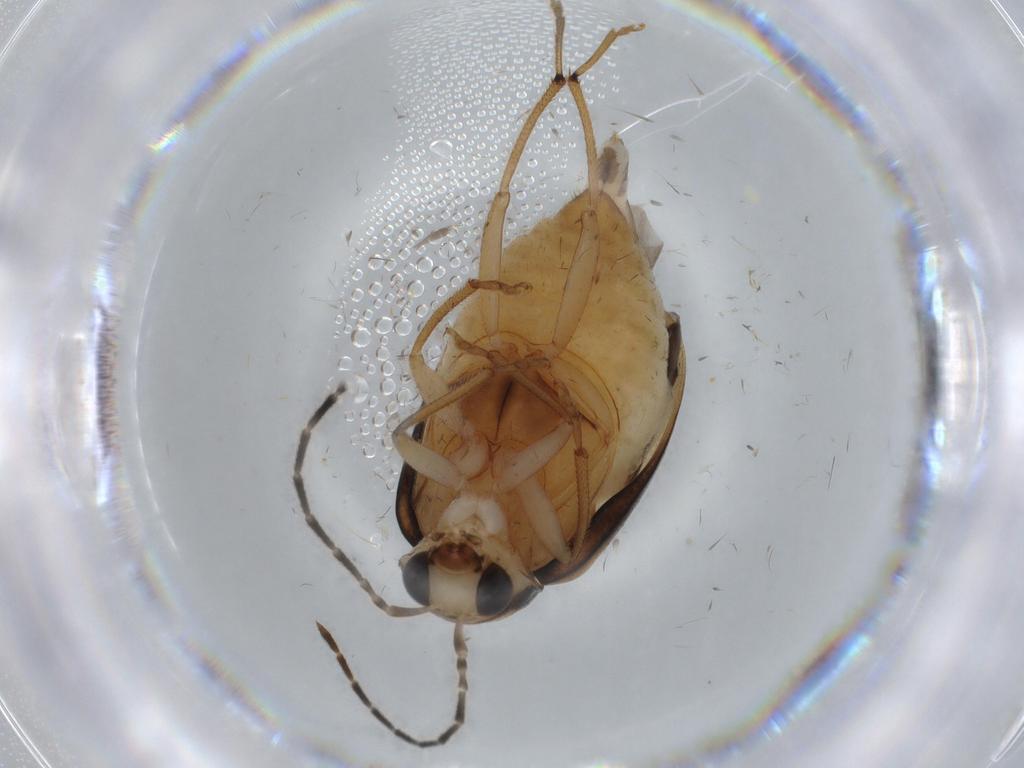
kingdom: Animalia
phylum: Arthropoda
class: Insecta
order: Coleoptera
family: Chrysomelidae
